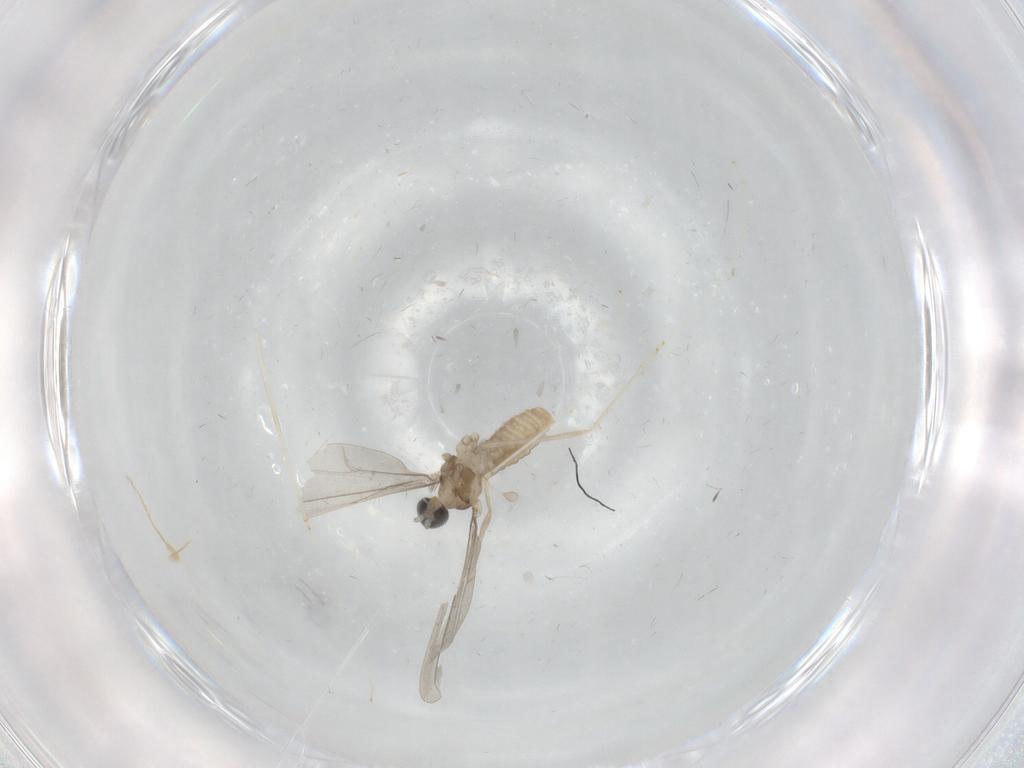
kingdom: Animalia
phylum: Arthropoda
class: Insecta
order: Diptera
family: Cecidomyiidae
